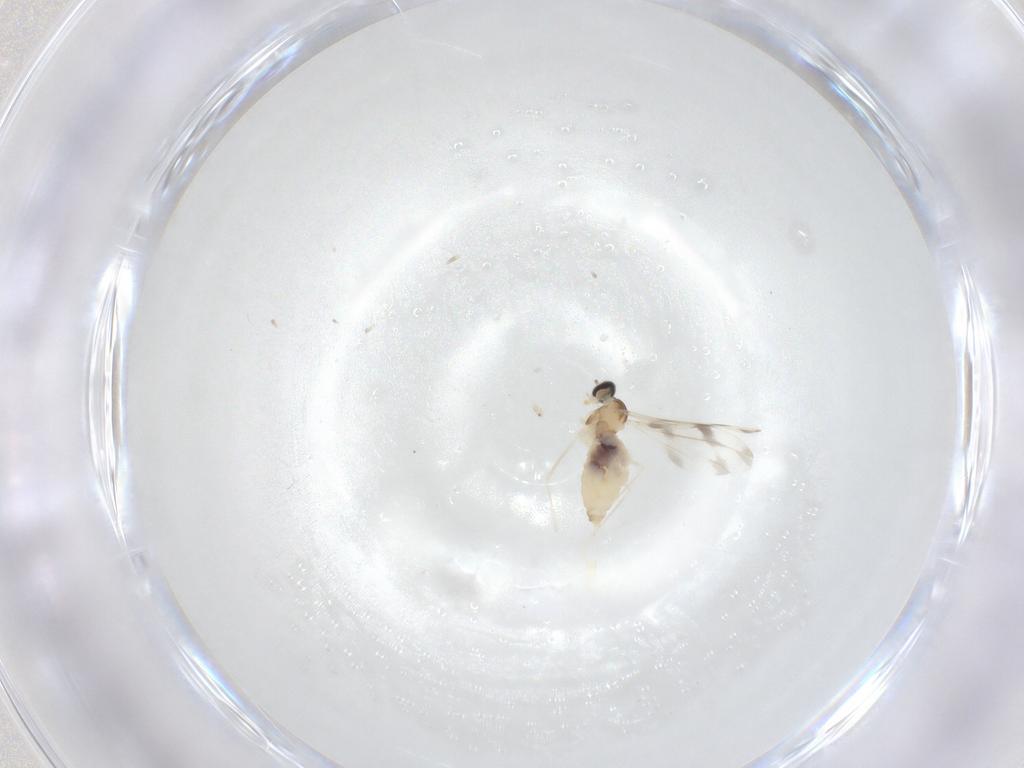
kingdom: Animalia
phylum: Arthropoda
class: Insecta
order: Diptera
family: Cecidomyiidae
